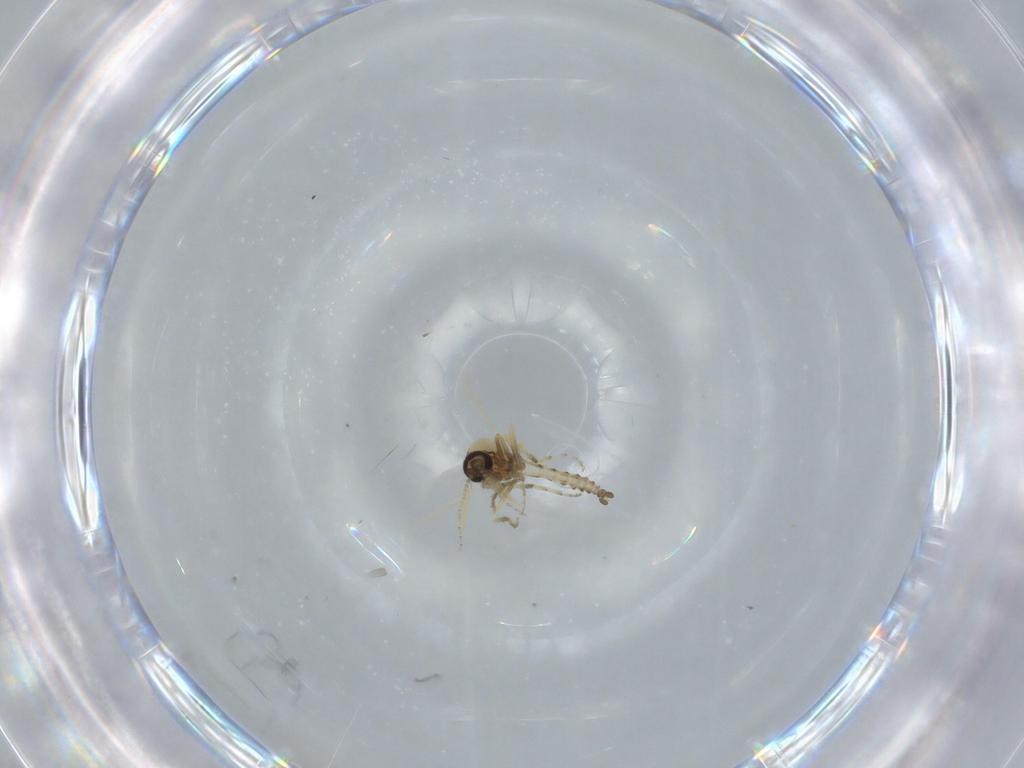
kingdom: Animalia
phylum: Arthropoda
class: Insecta
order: Diptera
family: Ceratopogonidae
